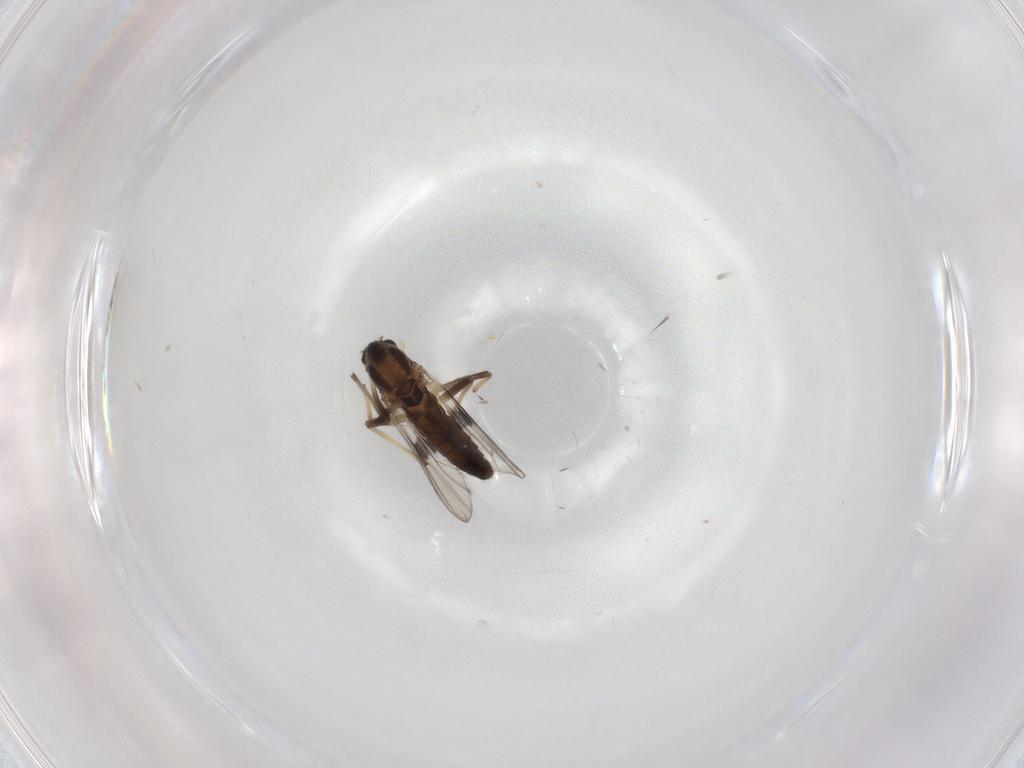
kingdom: Animalia
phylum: Arthropoda
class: Insecta
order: Diptera
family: Chironomidae
